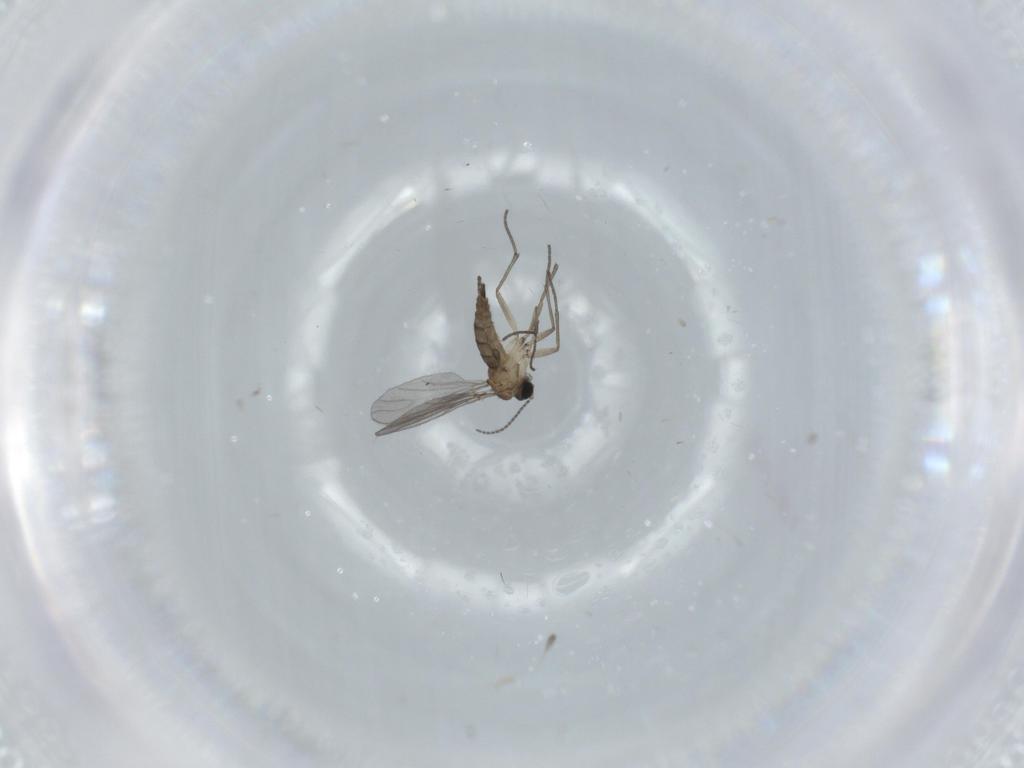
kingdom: Animalia
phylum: Arthropoda
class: Insecta
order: Diptera
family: Sciaridae
